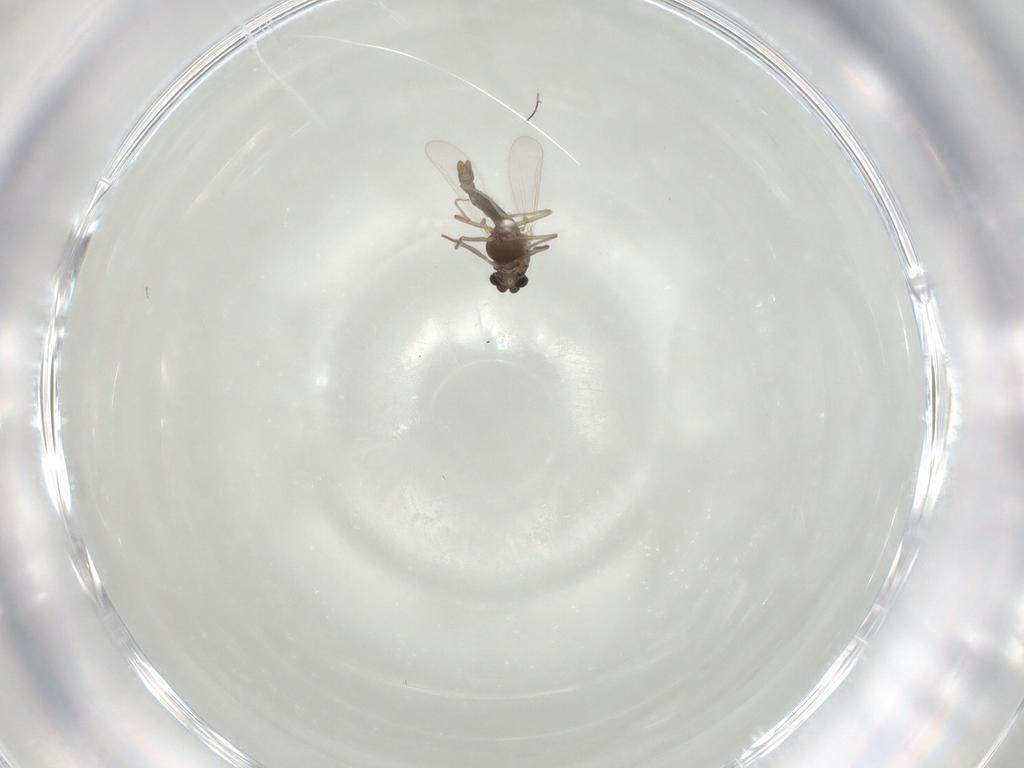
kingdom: Animalia
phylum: Arthropoda
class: Insecta
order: Diptera
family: Chironomidae
